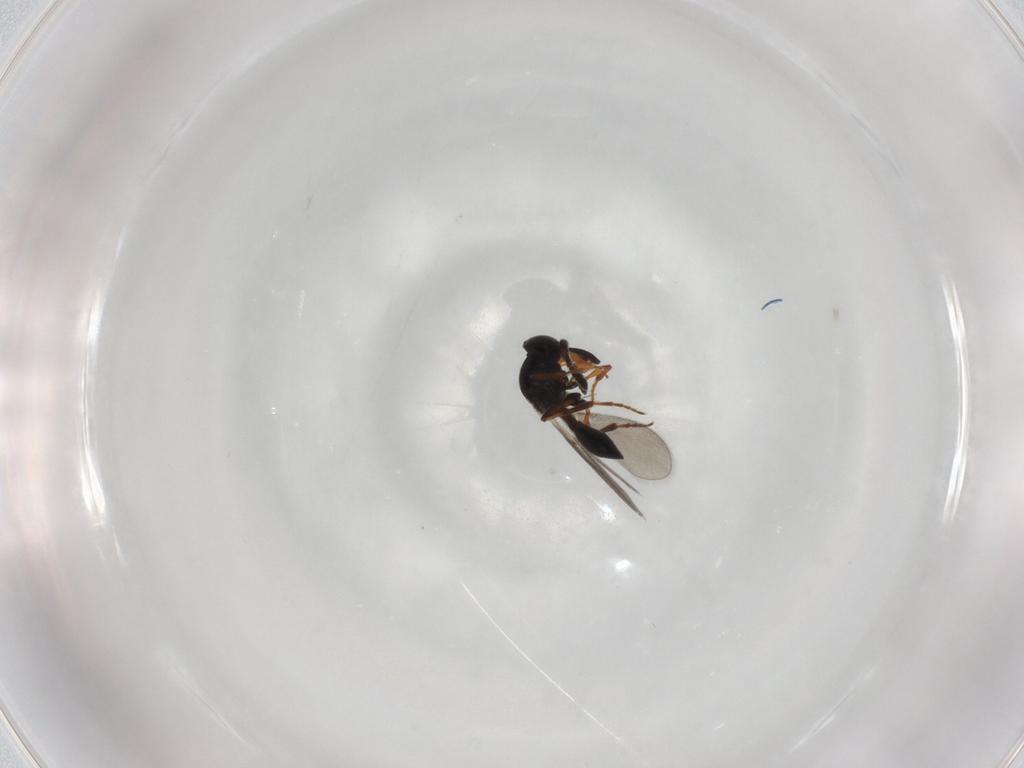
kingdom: Animalia
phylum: Arthropoda
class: Insecta
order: Hymenoptera
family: Platygastridae
